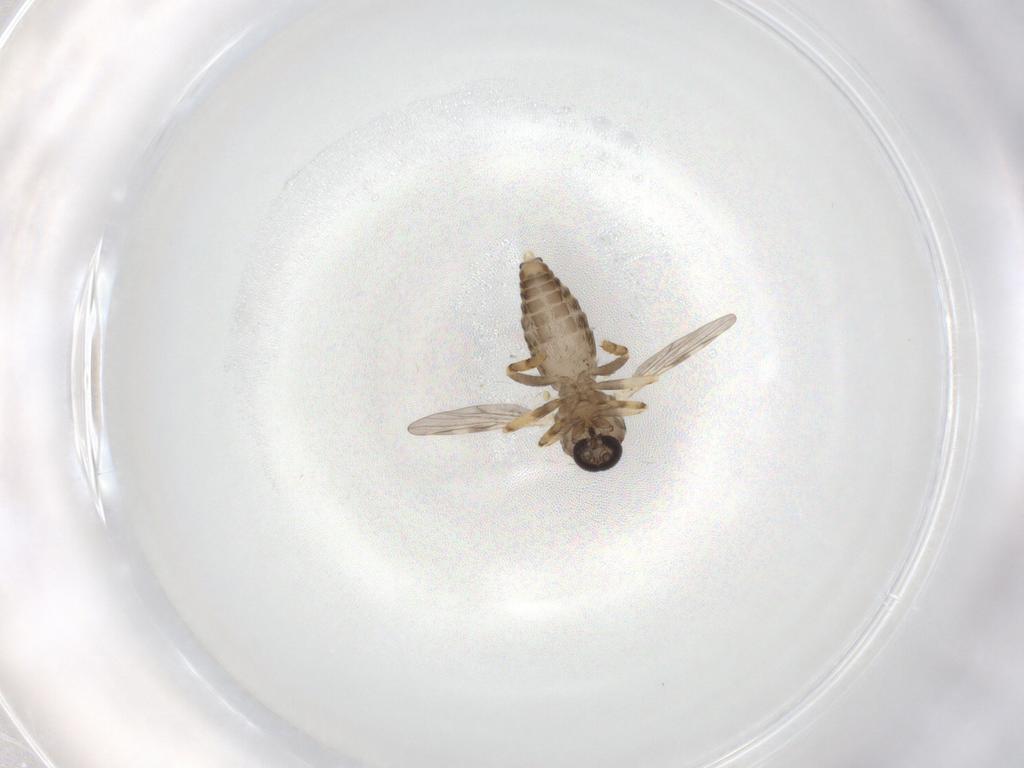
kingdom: Animalia
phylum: Arthropoda
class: Insecta
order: Diptera
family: Ceratopogonidae
